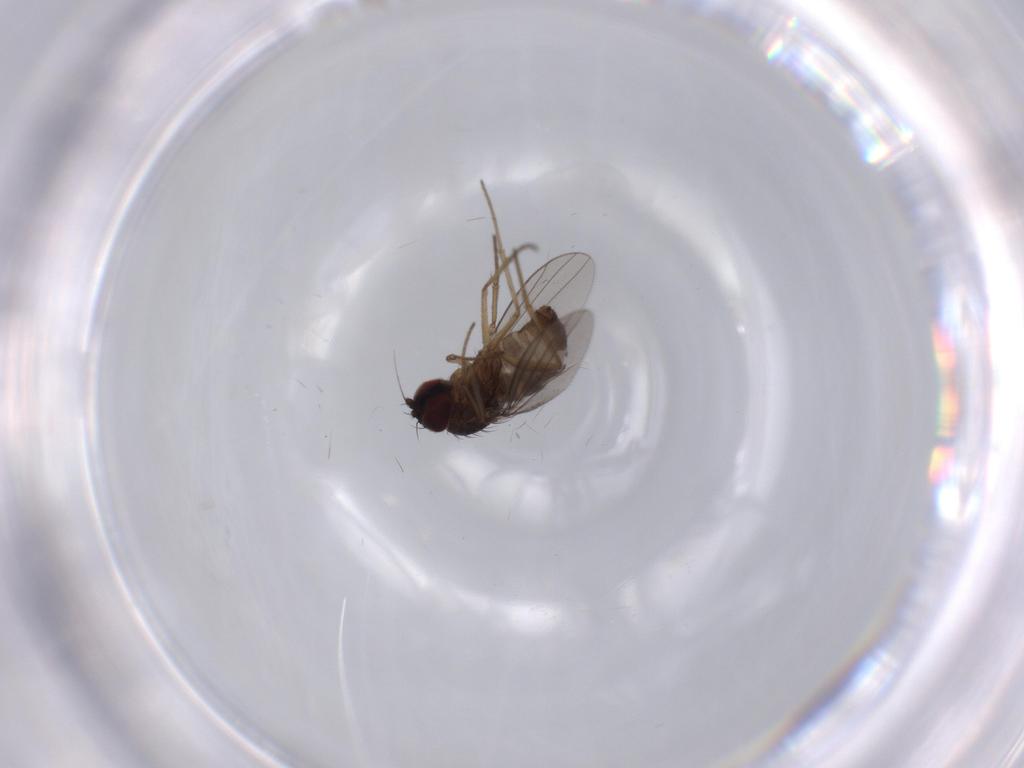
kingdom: Animalia
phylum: Arthropoda
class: Insecta
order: Diptera
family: Dolichopodidae
